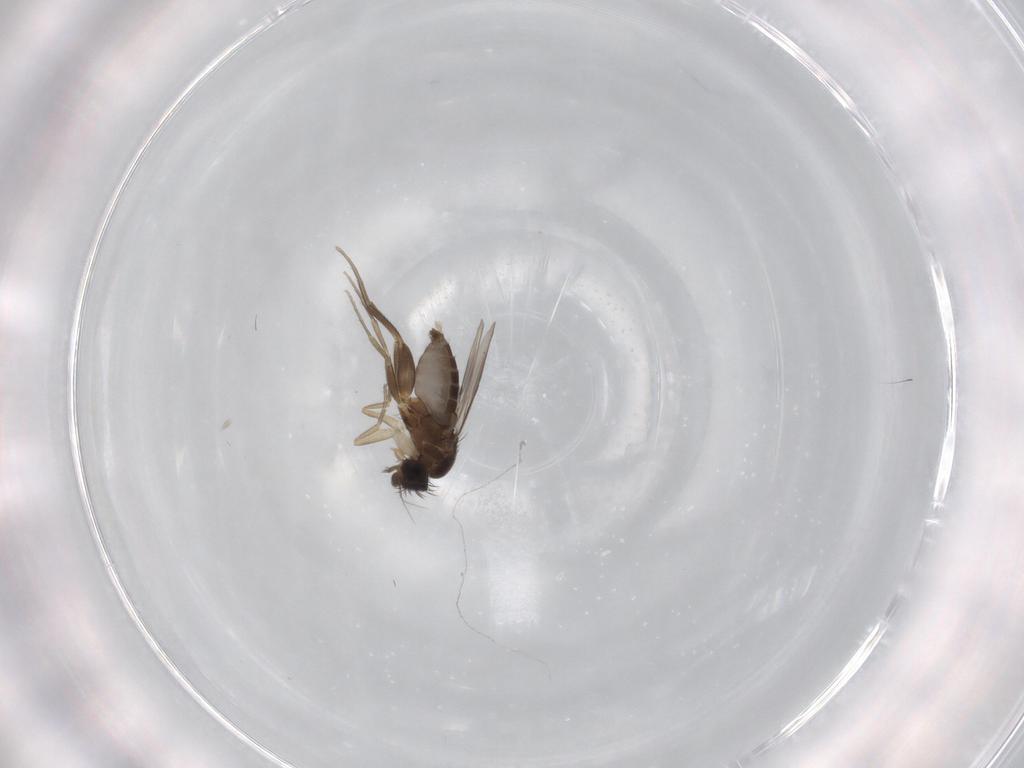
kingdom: Animalia
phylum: Arthropoda
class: Insecta
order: Diptera
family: Phoridae
